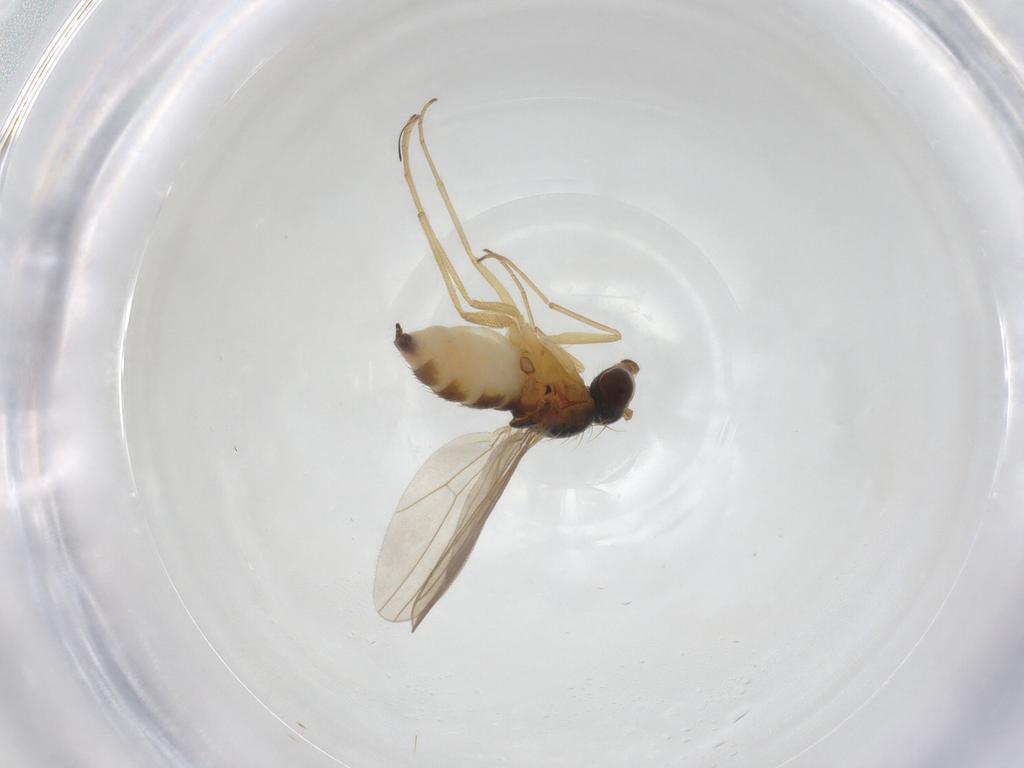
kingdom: Animalia
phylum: Arthropoda
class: Insecta
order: Diptera
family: Dolichopodidae
